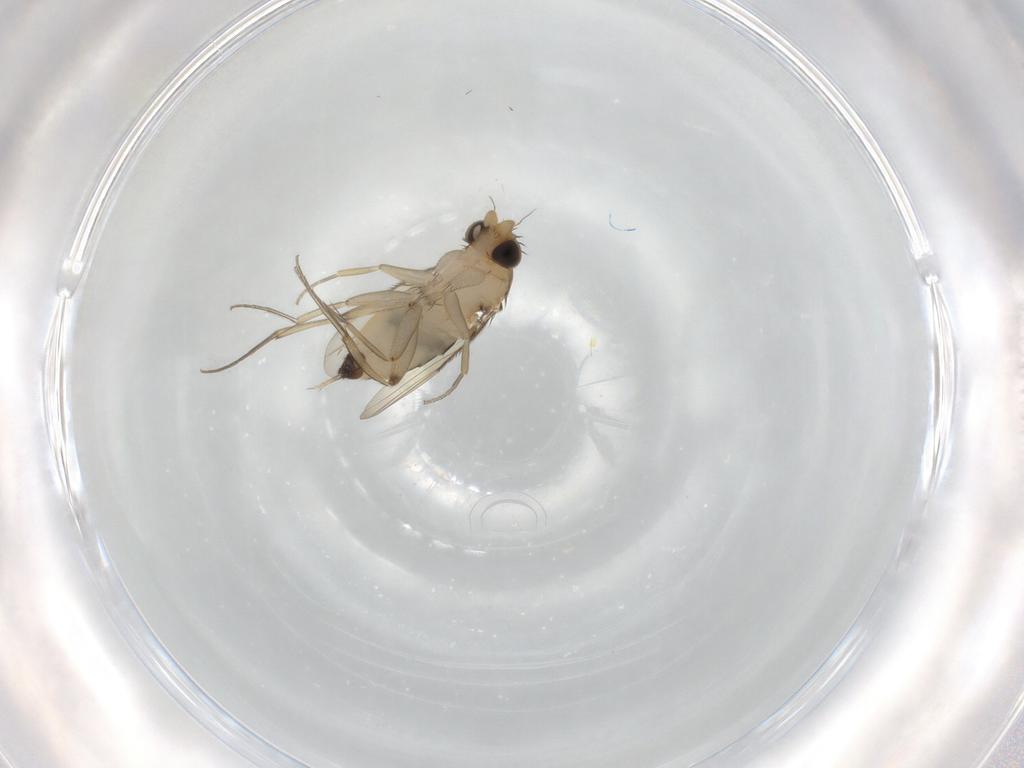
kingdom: Animalia
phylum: Arthropoda
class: Insecta
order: Diptera
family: Phoridae
